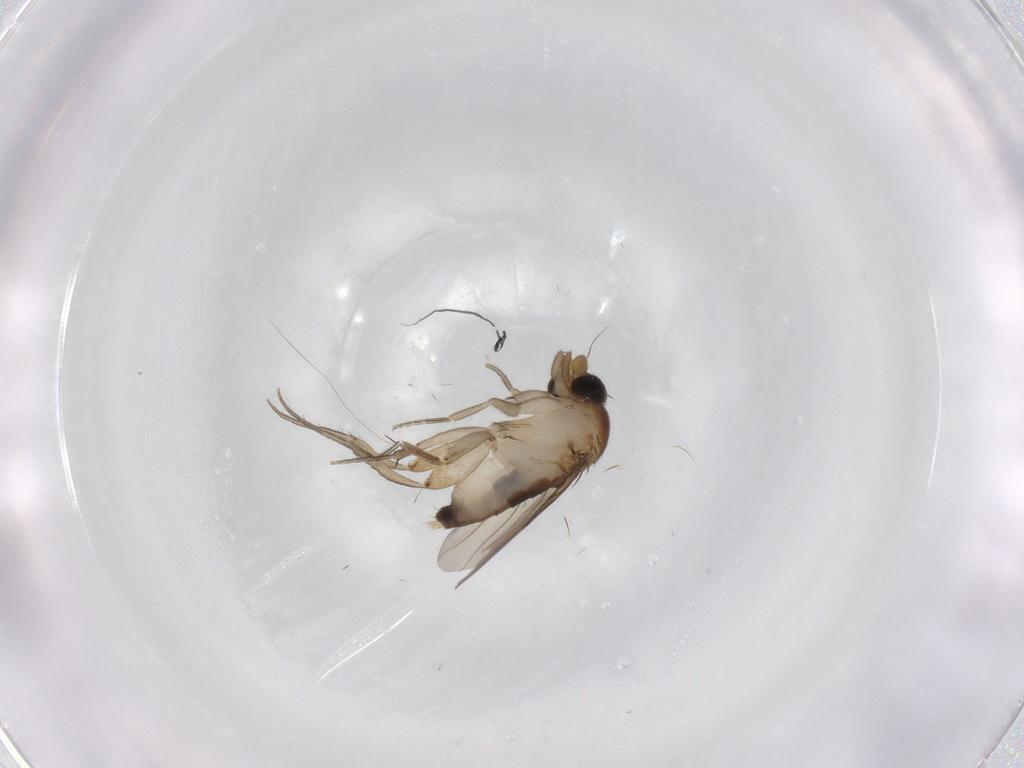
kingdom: Animalia
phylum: Arthropoda
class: Insecta
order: Diptera
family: Phoridae
